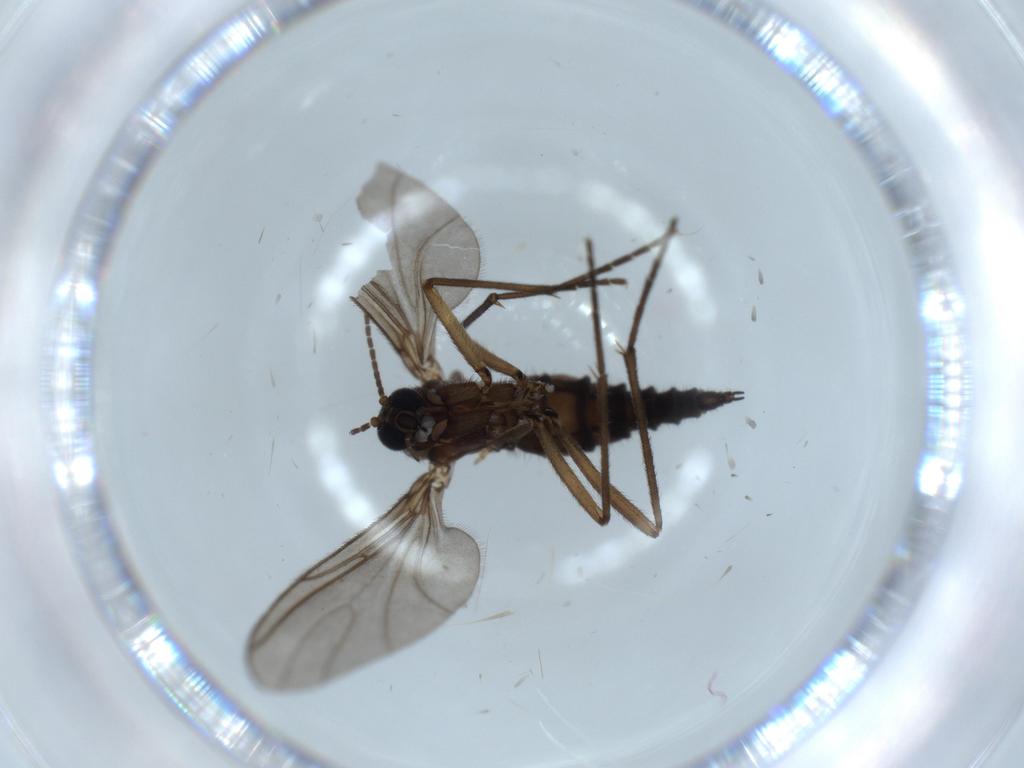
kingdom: Animalia
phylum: Arthropoda
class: Insecta
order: Diptera
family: Sciaridae
